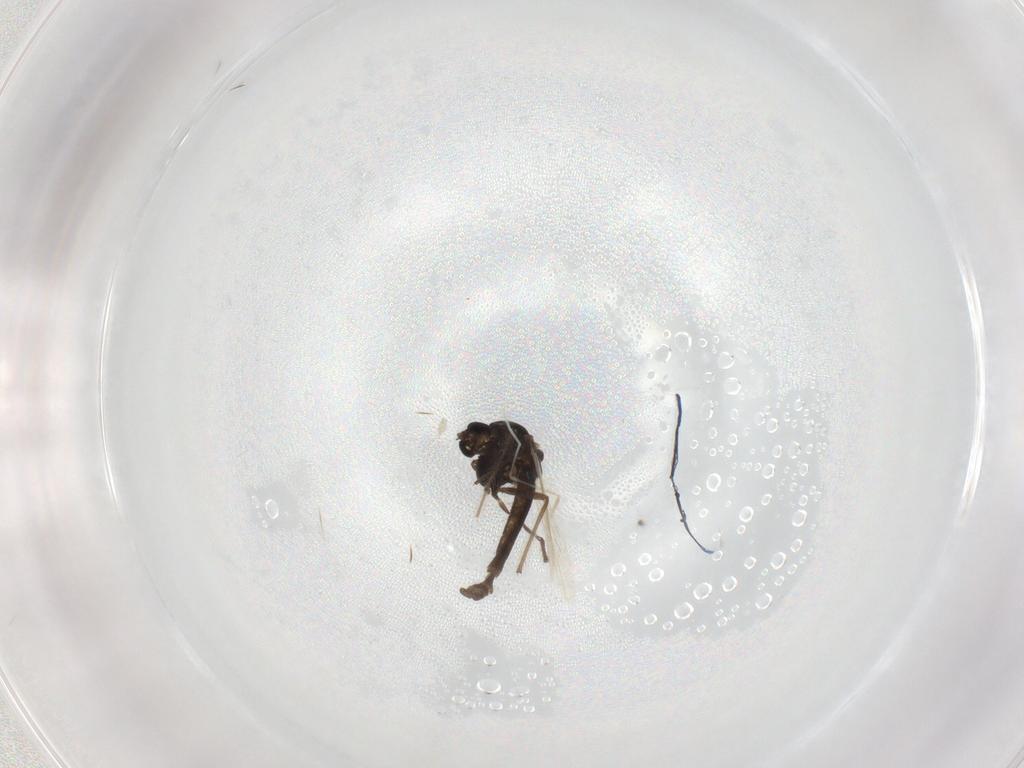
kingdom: Animalia
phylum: Arthropoda
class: Insecta
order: Diptera
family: Chironomidae
